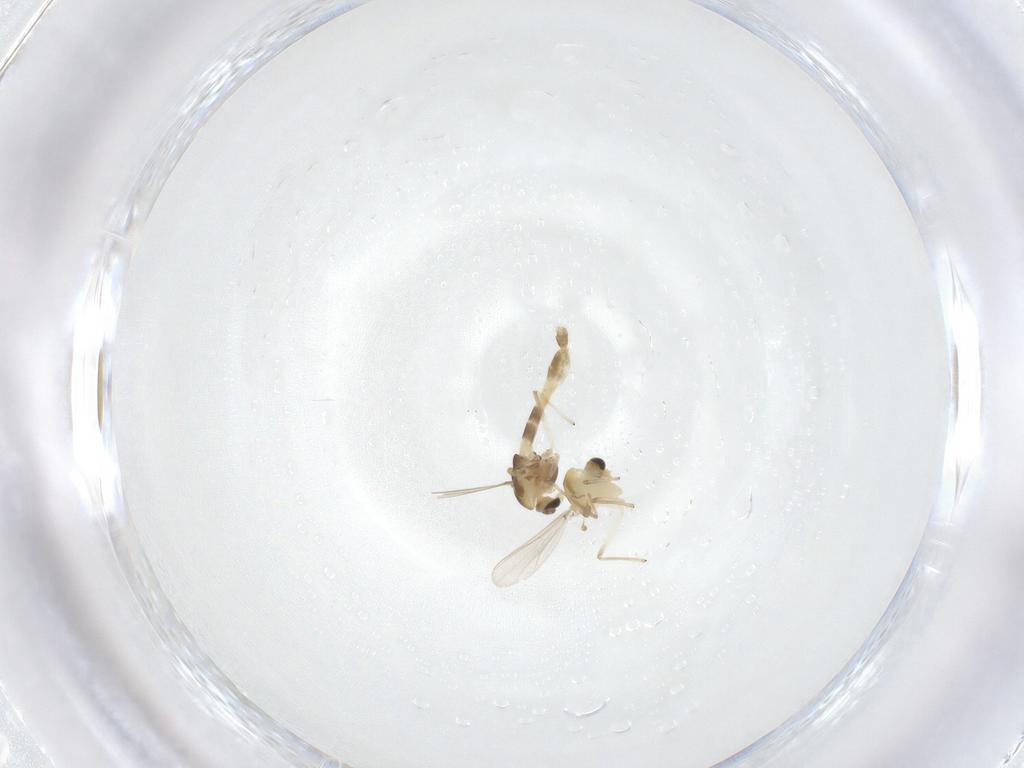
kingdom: Animalia
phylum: Arthropoda
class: Insecta
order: Diptera
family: Chironomidae
